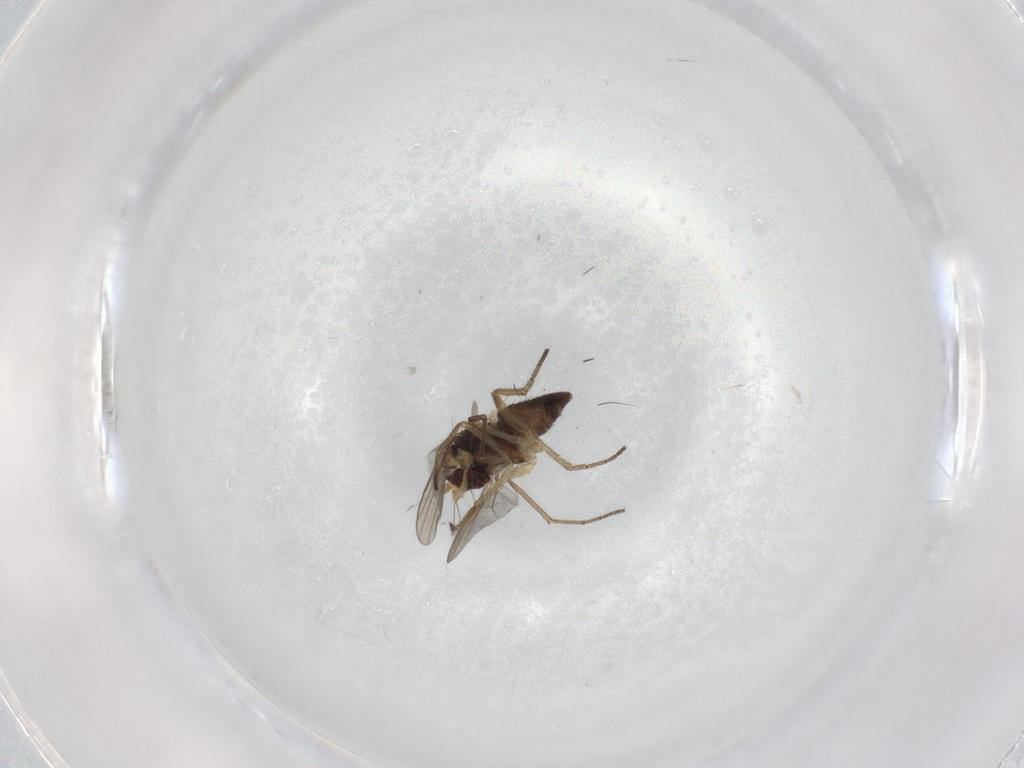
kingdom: Animalia
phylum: Arthropoda
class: Insecta
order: Diptera
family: Dolichopodidae
